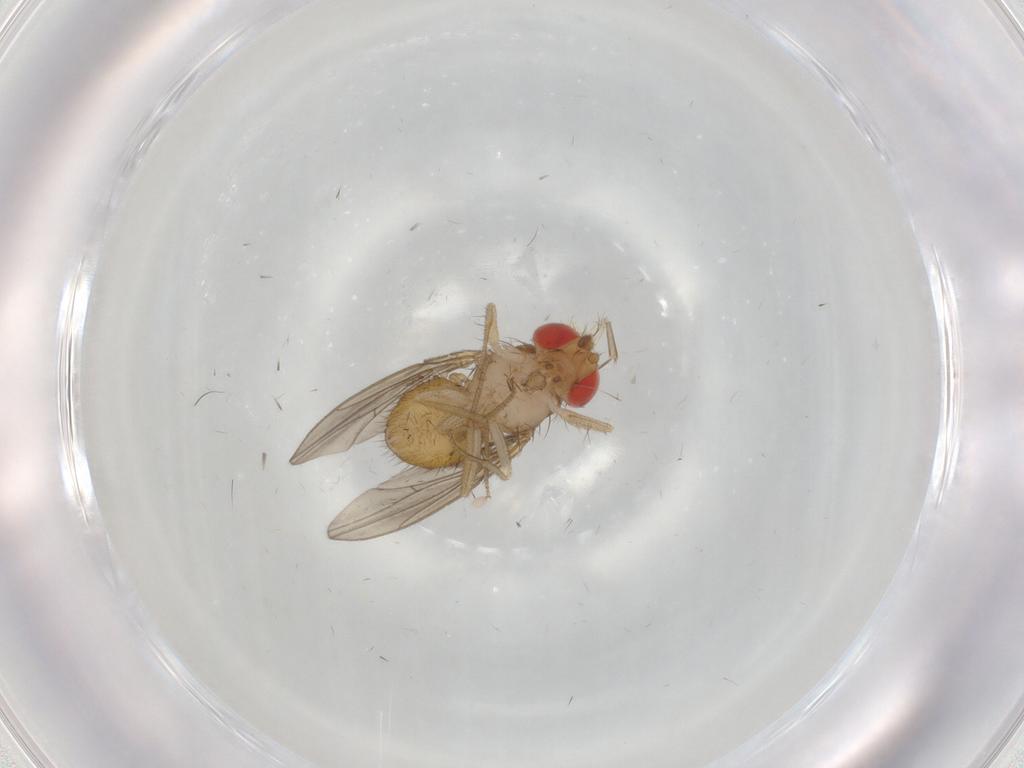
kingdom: Animalia
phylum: Arthropoda
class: Insecta
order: Diptera
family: Drosophilidae
